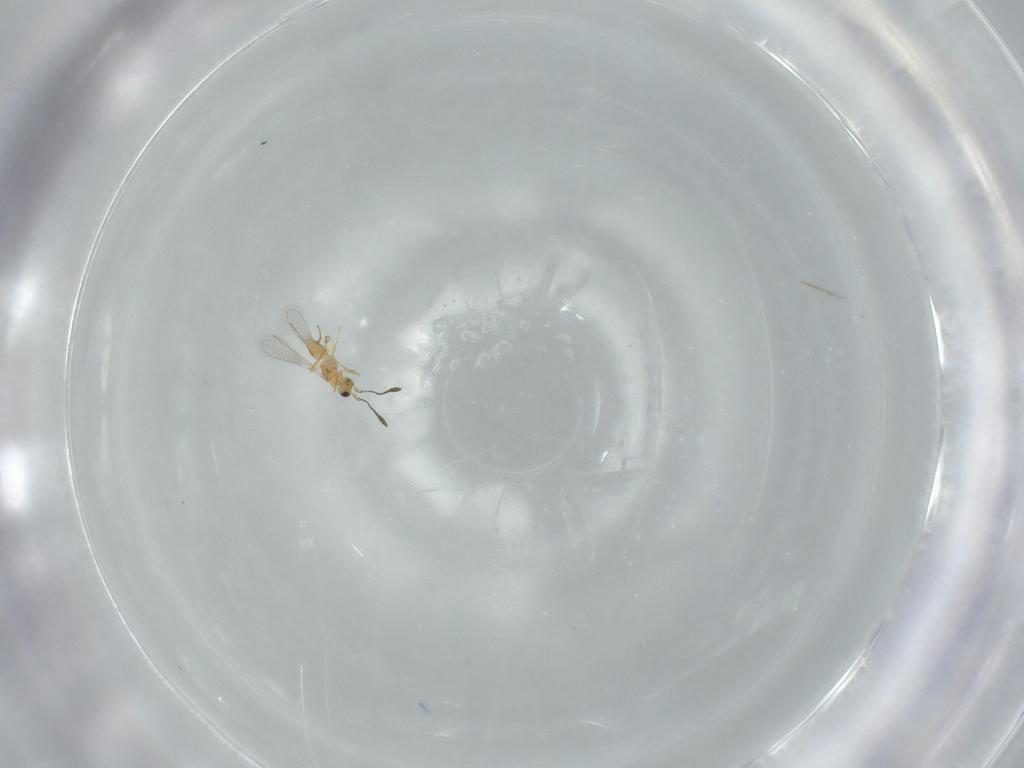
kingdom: Animalia
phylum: Arthropoda
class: Insecta
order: Hymenoptera
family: Mymaridae
